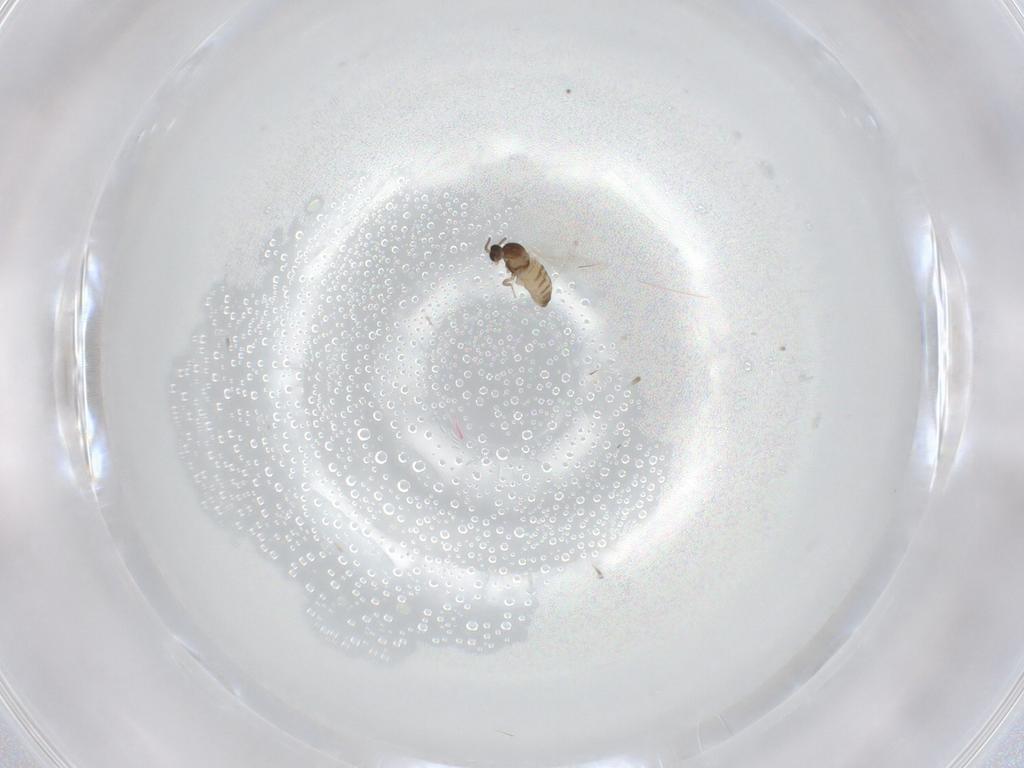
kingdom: Animalia
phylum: Arthropoda
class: Insecta
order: Diptera
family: Cecidomyiidae
